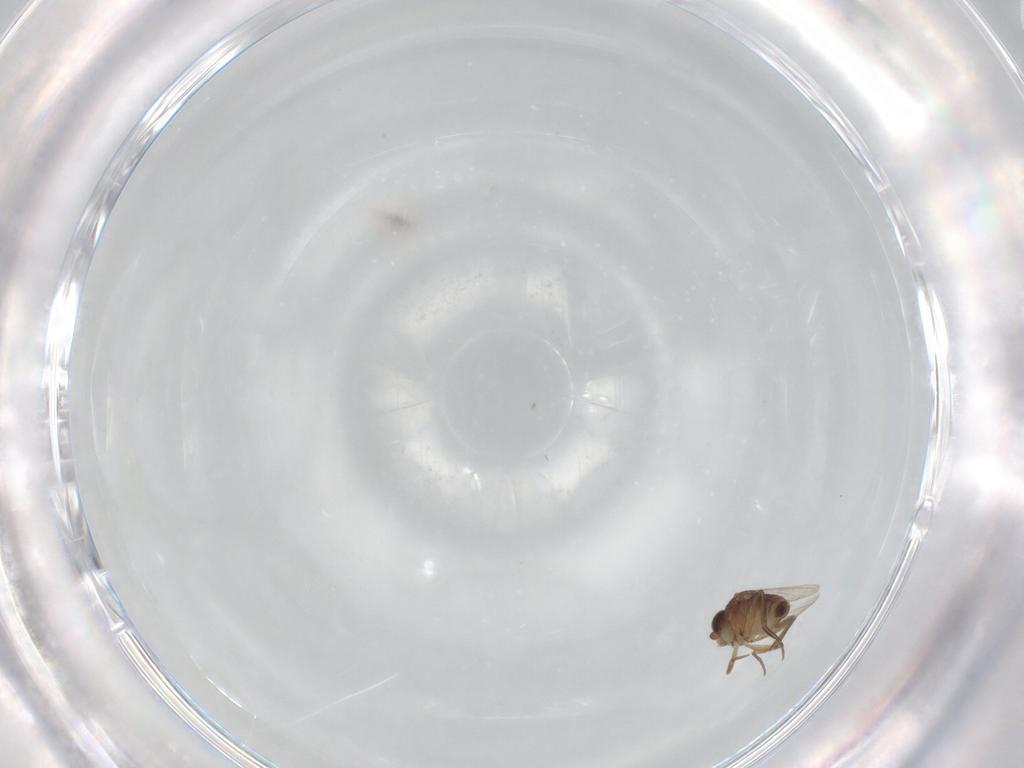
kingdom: Animalia
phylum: Arthropoda
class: Insecta
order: Diptera
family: Phoridae
